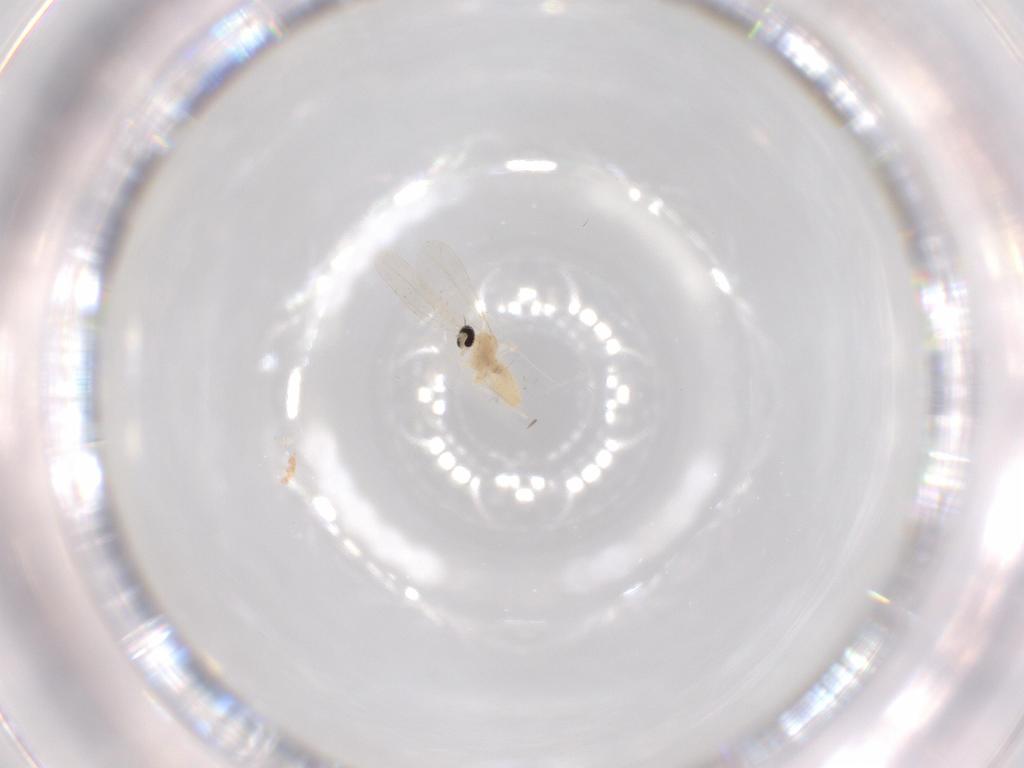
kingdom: Animalia
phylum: Arthropoda
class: Insecta
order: Diptera
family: Cecidomyiidae
